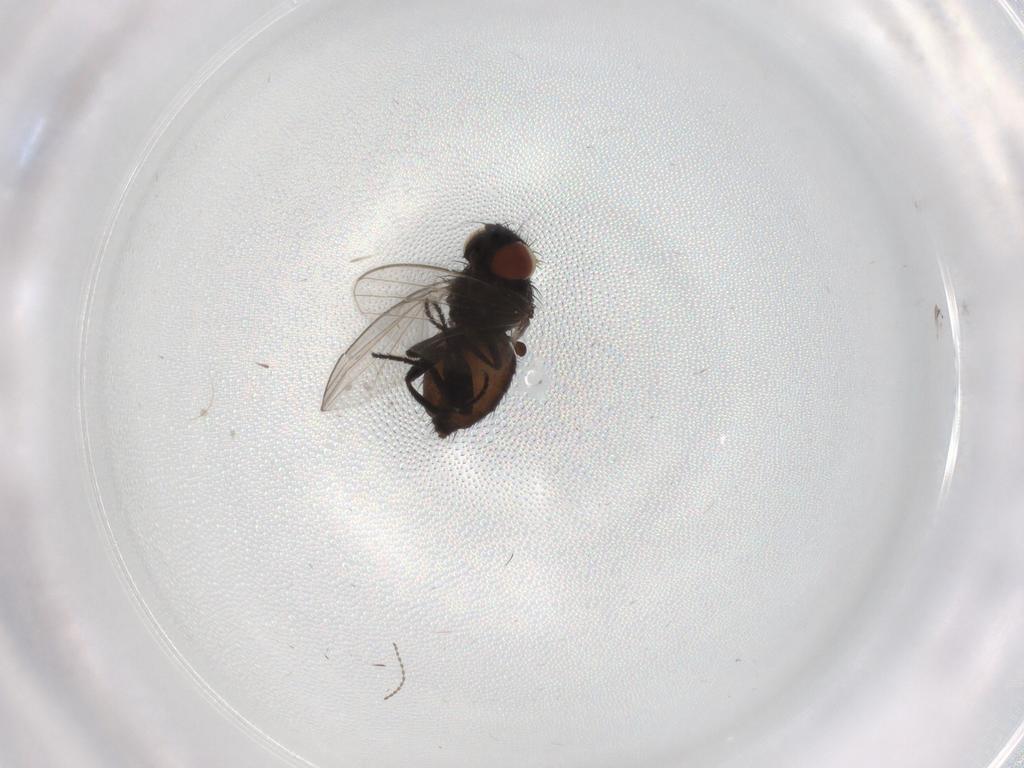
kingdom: Animalia
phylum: Arthropoda
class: Insecta
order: Diptera
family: Milichiidae
